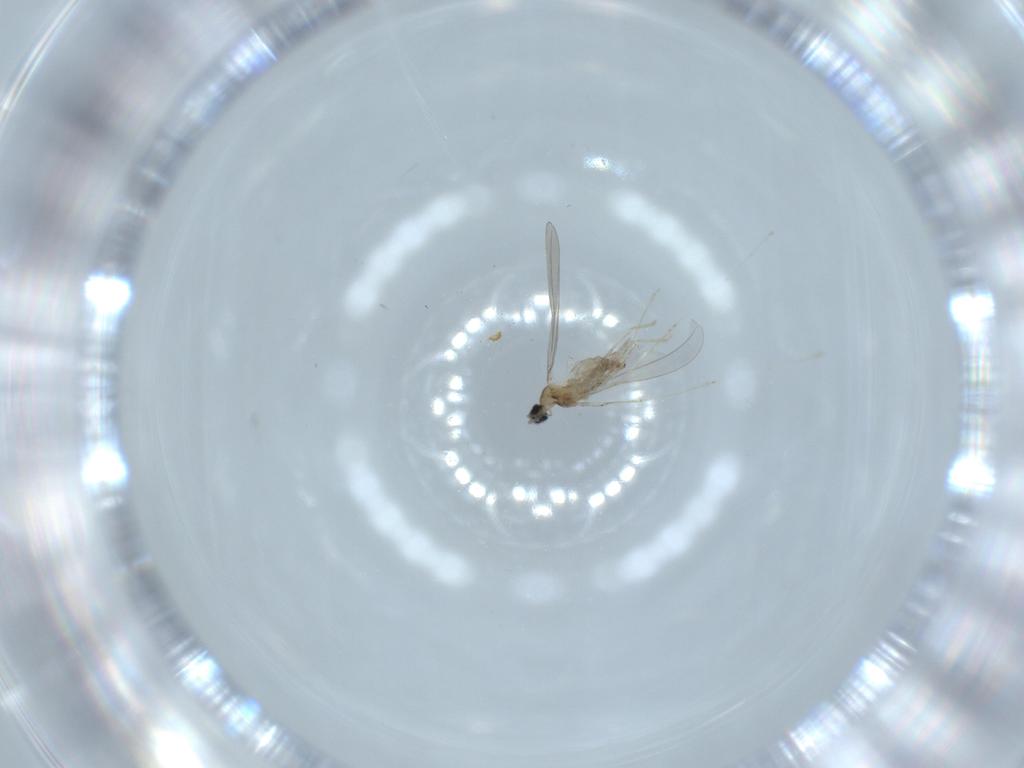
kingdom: Animalia
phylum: Arthropoda
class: Insecta
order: Diptera
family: Cecidomyiidae
